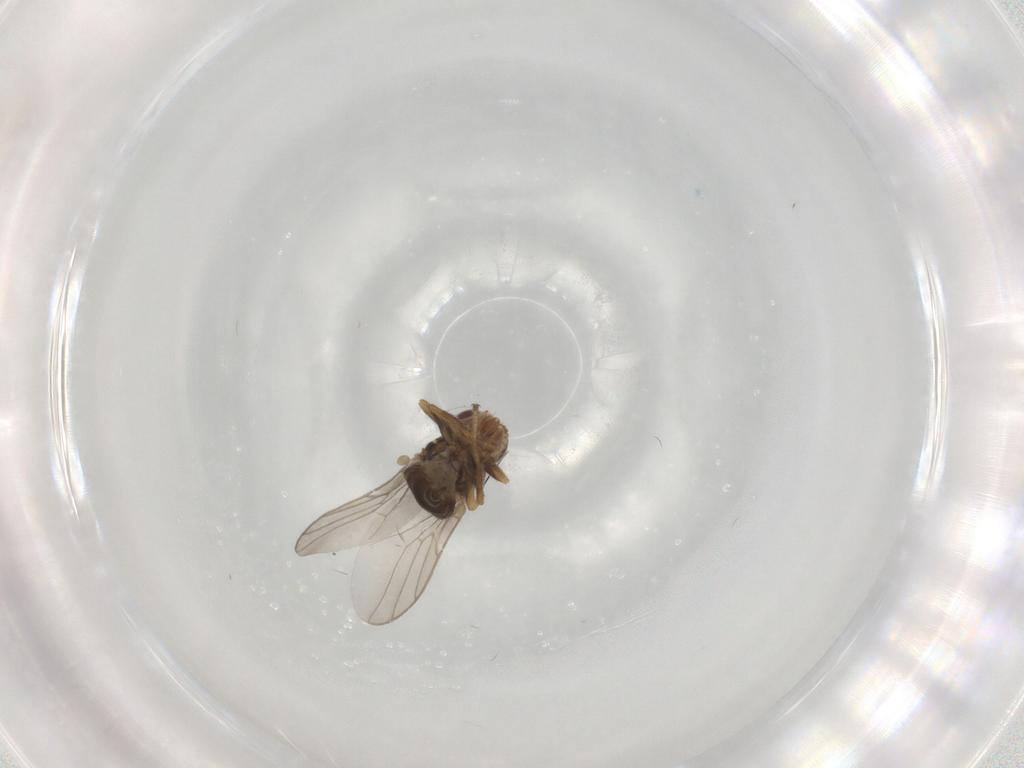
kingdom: Animalia
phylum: Arthropoda
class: Insecta
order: Diptera
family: Chloropidae
